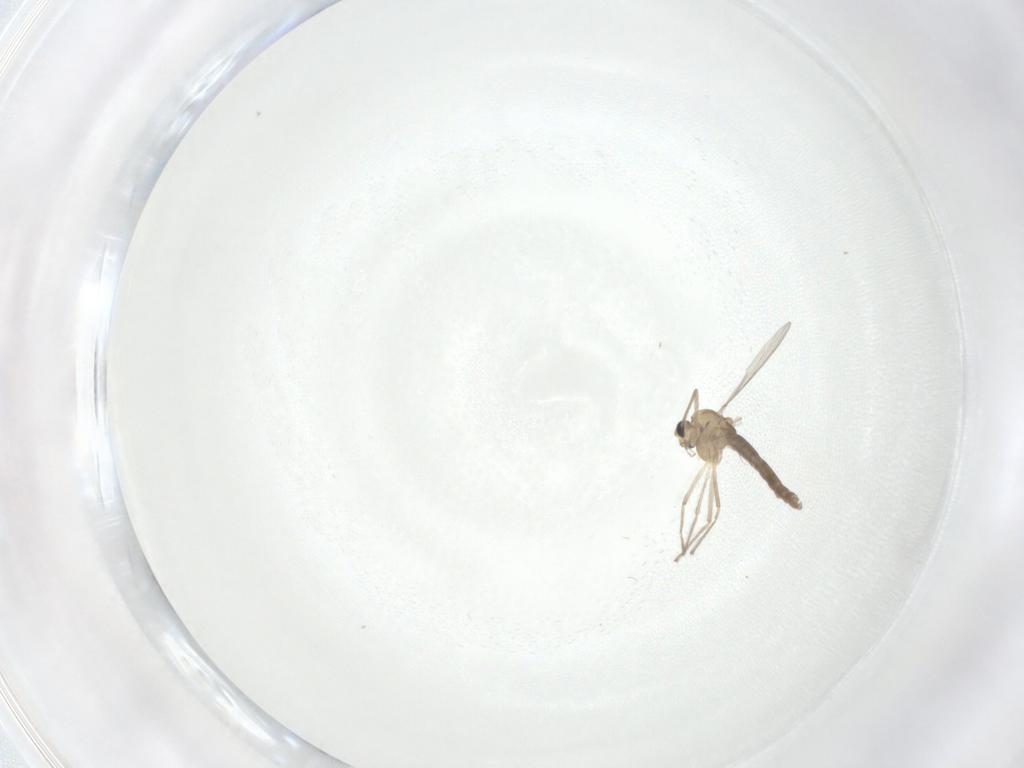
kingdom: Animalia
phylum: Arthropoda
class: Insecta
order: Diptera
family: Chironomidae
